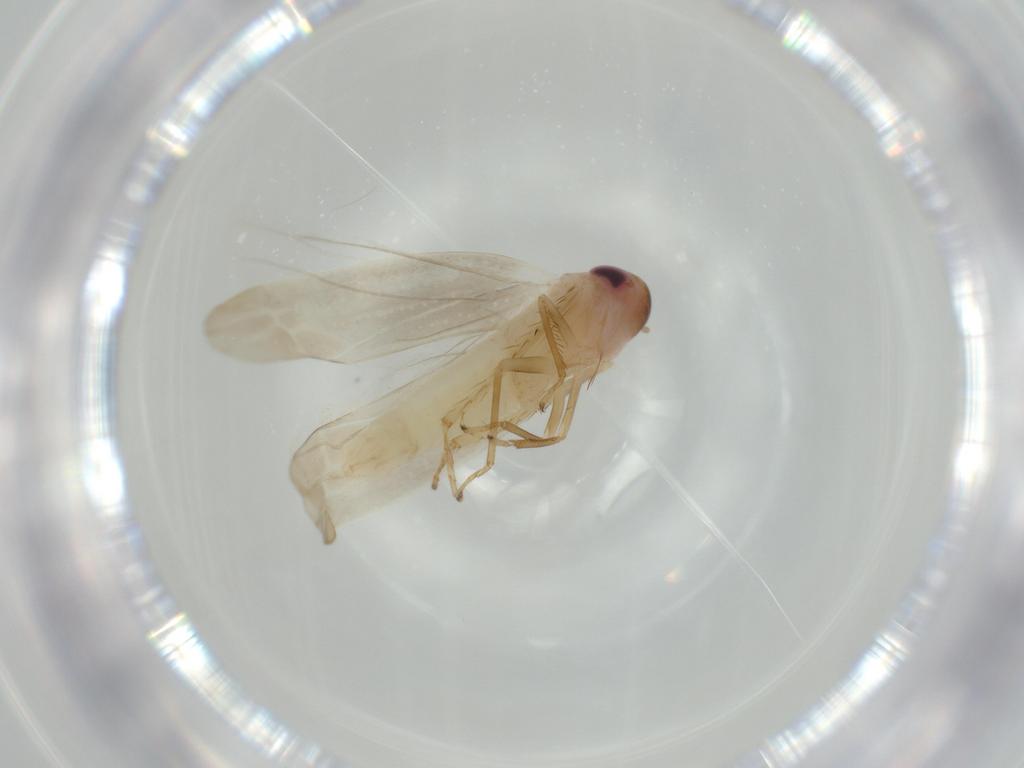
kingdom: Animalia
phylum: Arthropoda
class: Insecta
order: Hemiptera
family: Cicadellidae
